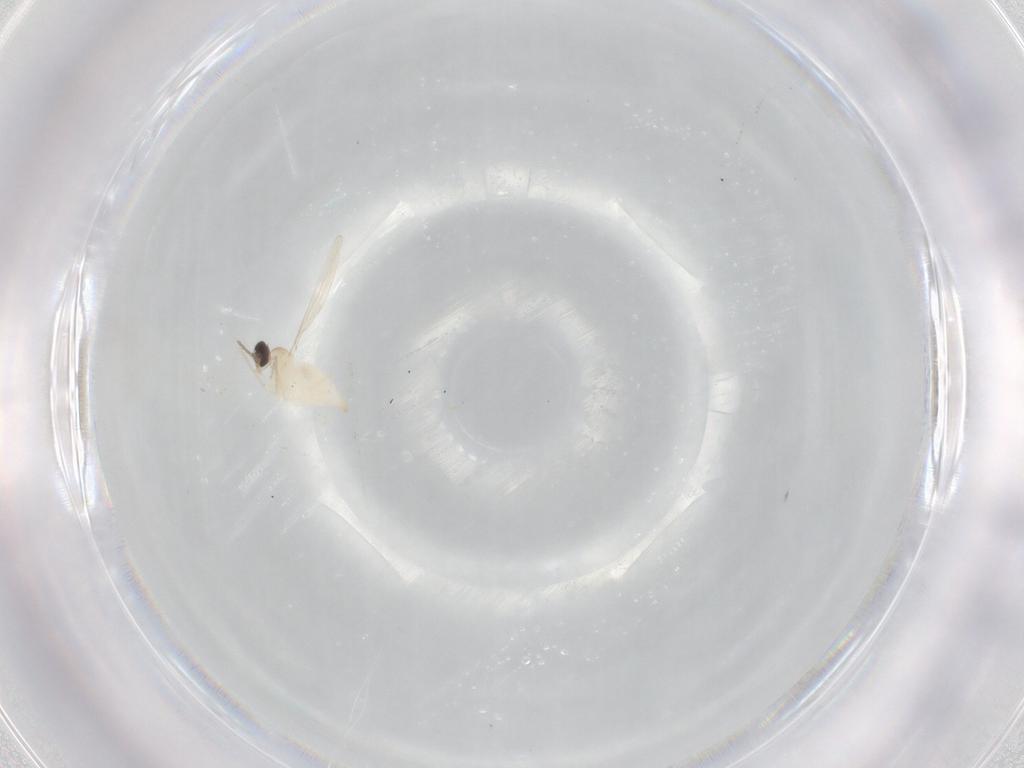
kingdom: Animalia
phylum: Arthropoda
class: Insecta
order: Diptera
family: Cecidomyiidae
